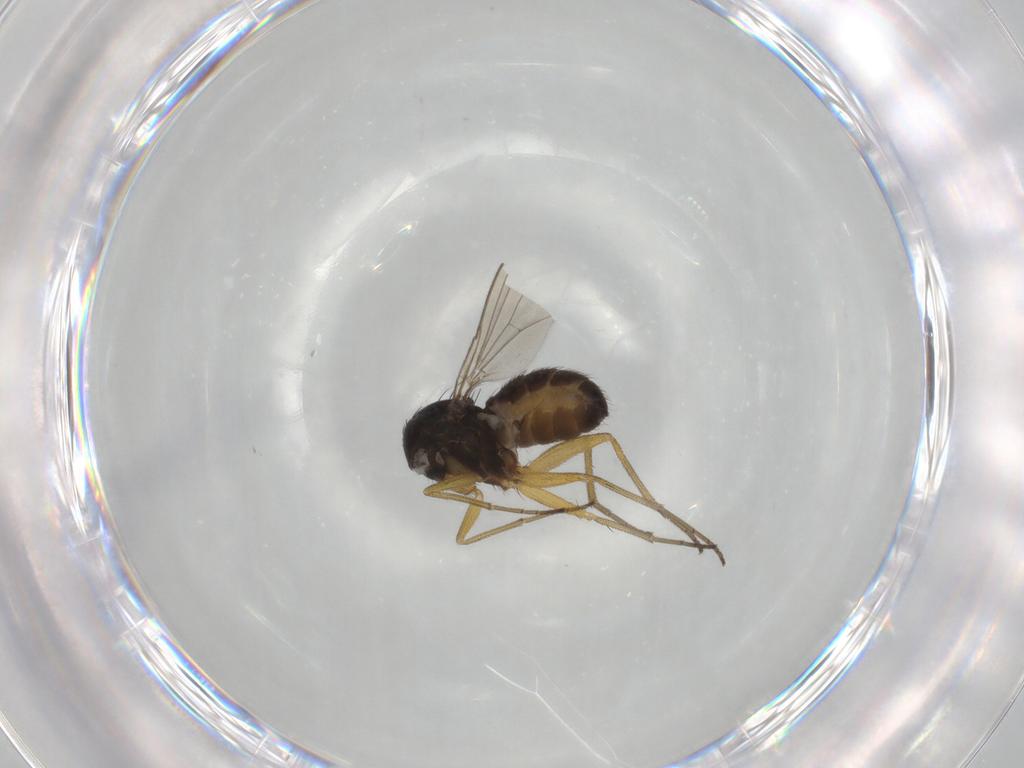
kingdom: Animalia
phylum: Arthropoda
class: Insecta
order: Diptera
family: Dolichopodidae
